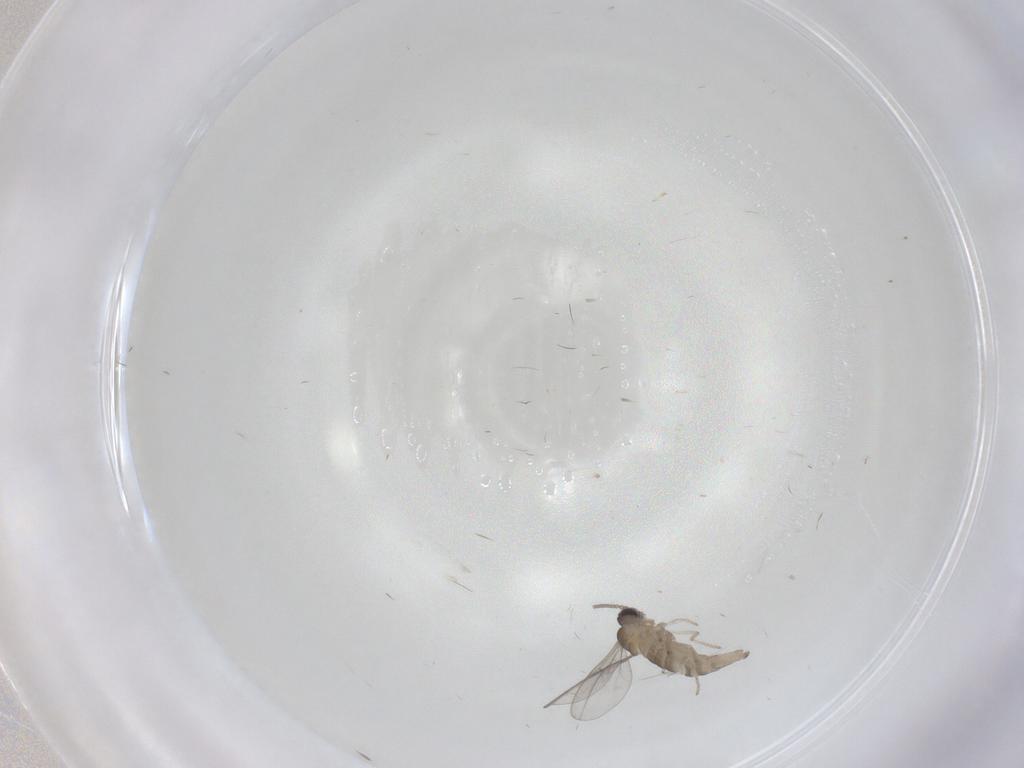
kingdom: Animalia
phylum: Arthropoda
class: Insecta
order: Diptera
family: Cecidomyiidae
